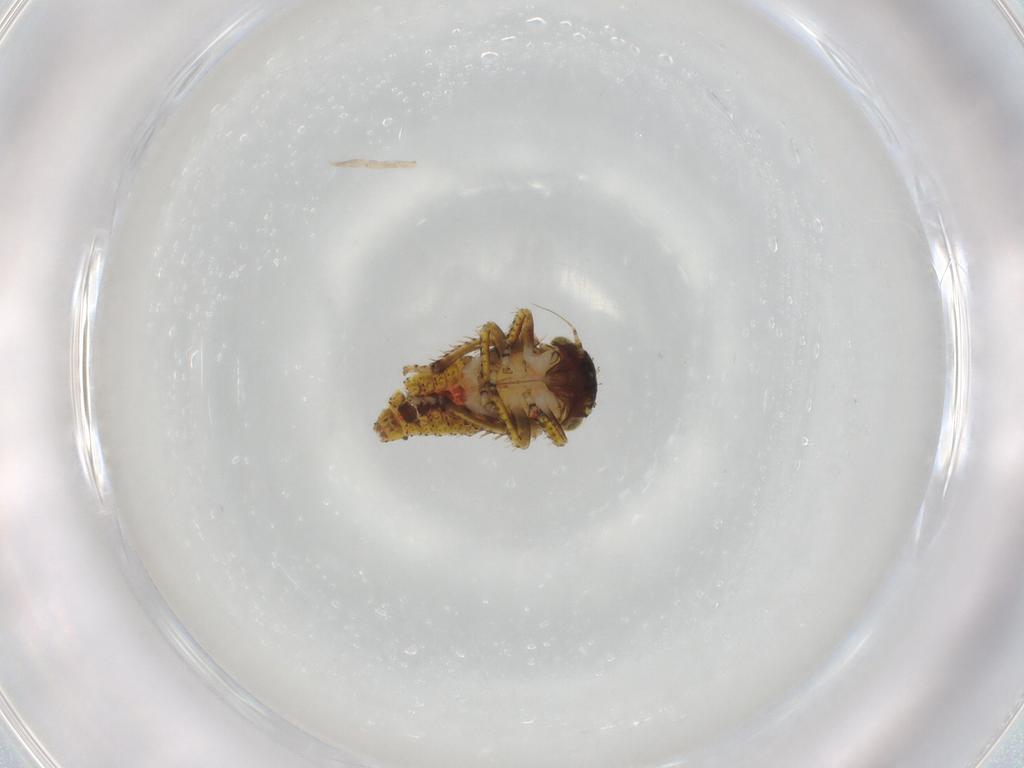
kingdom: Animalia
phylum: Arthropoda
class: Insecta
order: Hemiptera
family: Cicadellidae
